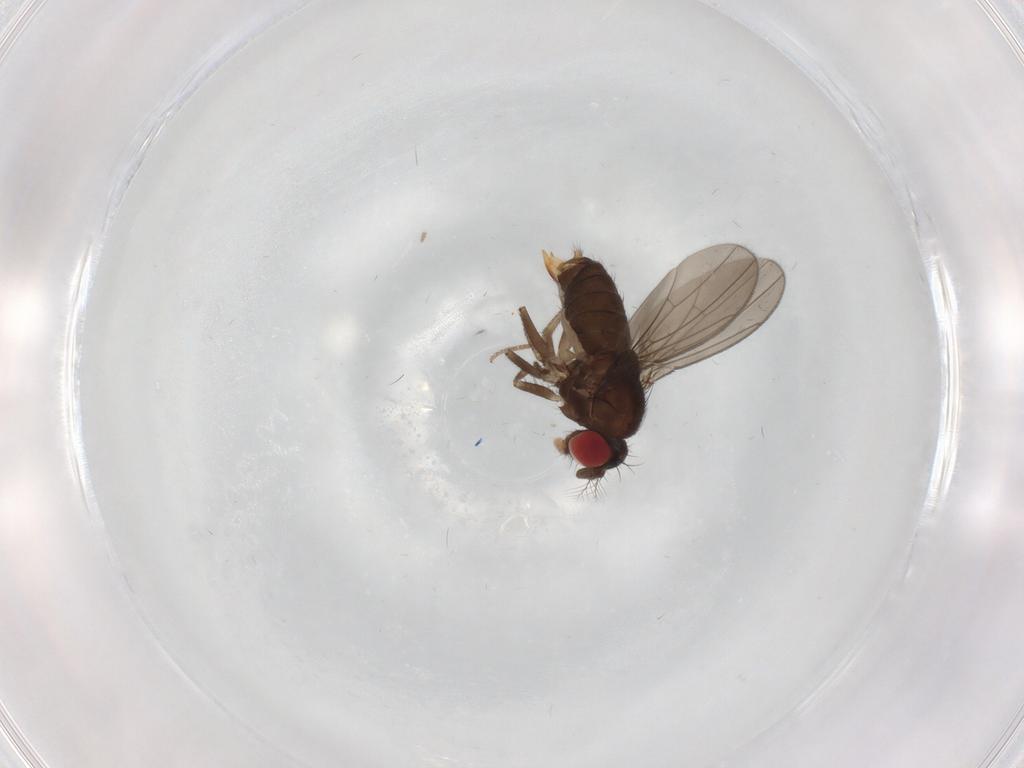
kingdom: Animalia
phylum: Arthropoda
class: Insecta
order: Diptera
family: Drosophilidae
